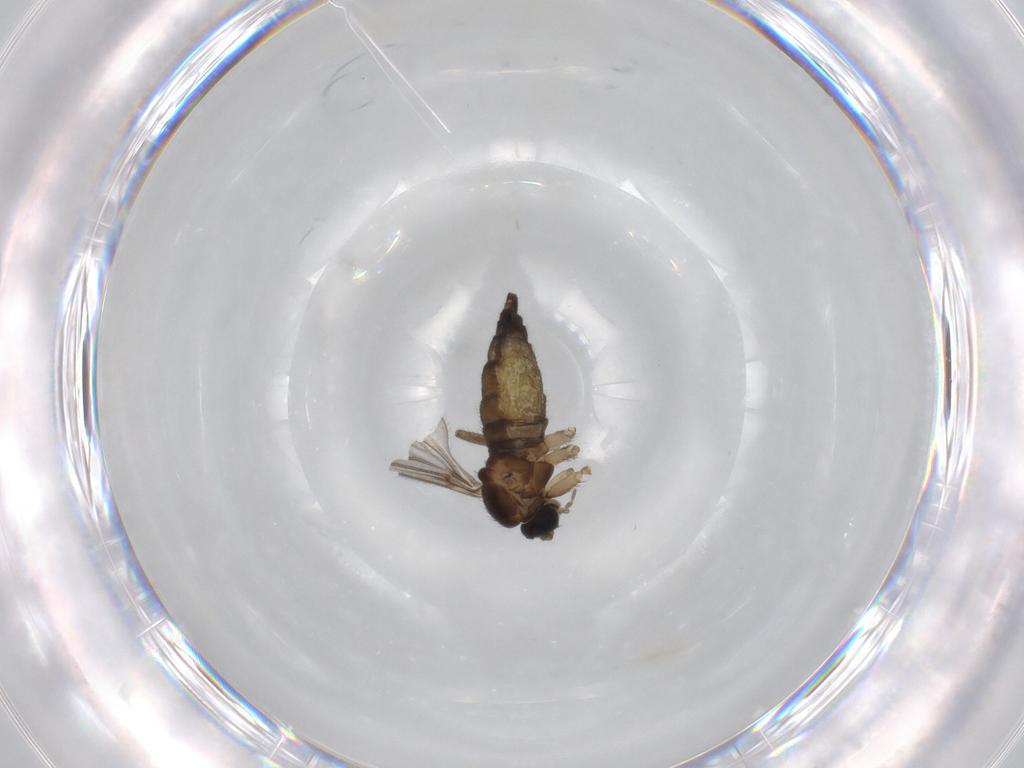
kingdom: Animalia
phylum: Arthropoda
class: Insecta
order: Diptera
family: Sciaridae
